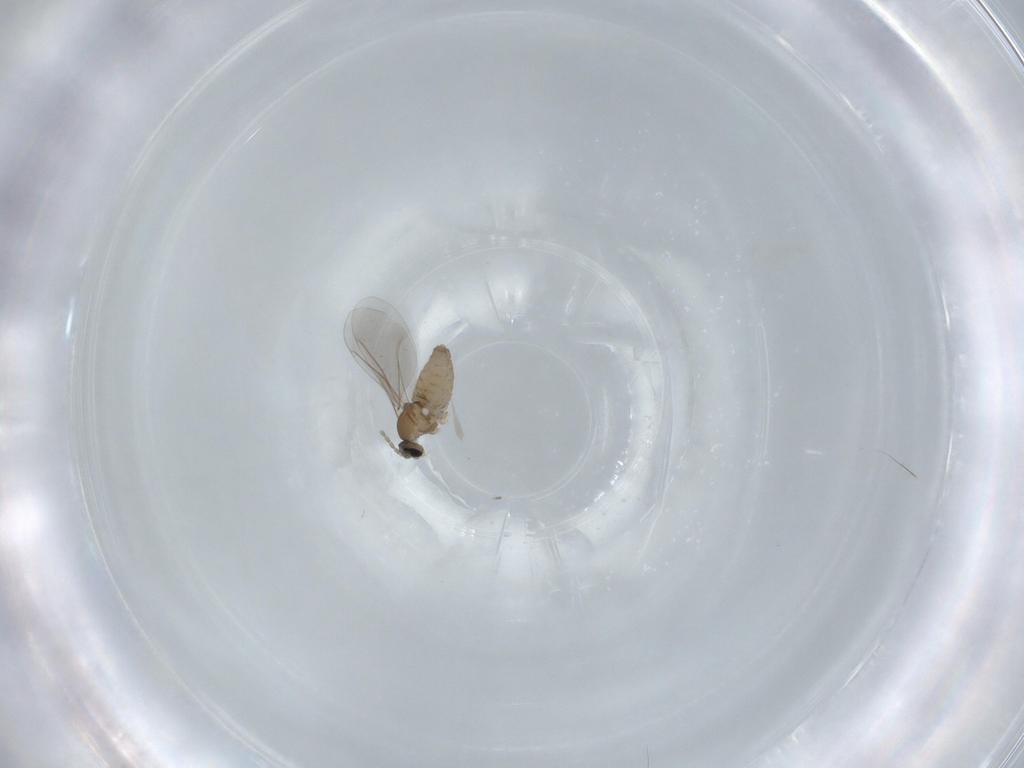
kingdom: Animalia
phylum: Arthropoda
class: Insecta
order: Diptera
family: Cecidomyiidae
